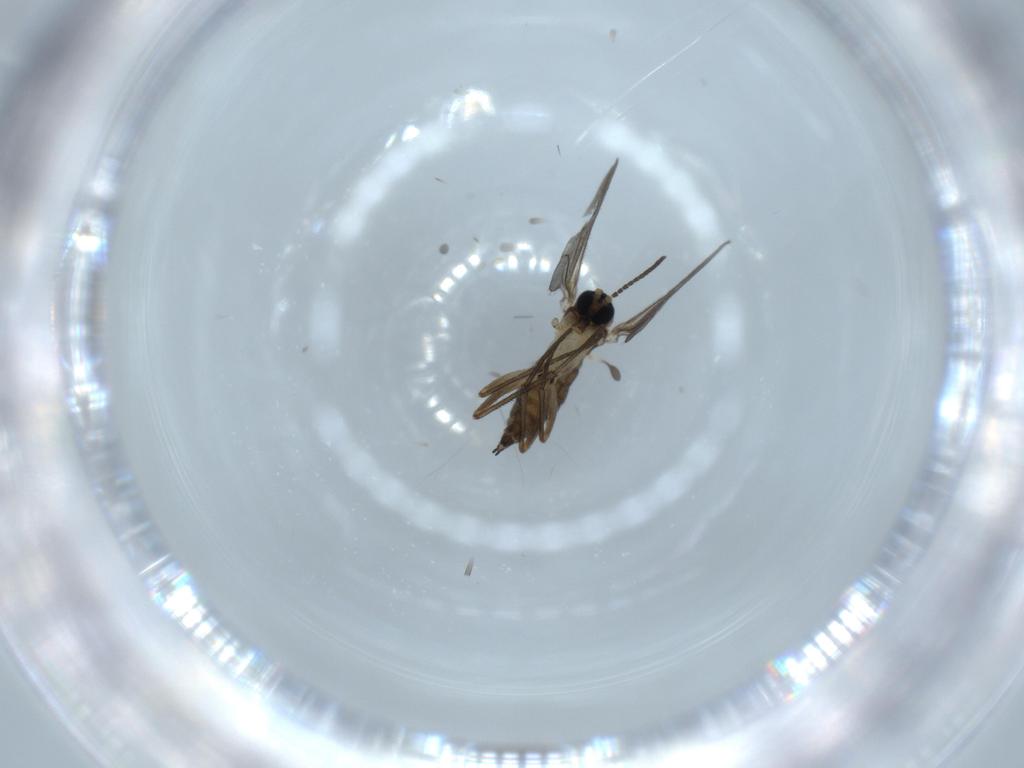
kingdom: Animalia
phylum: Arthropoda
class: Insecta
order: Diptera
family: Sciaridae
